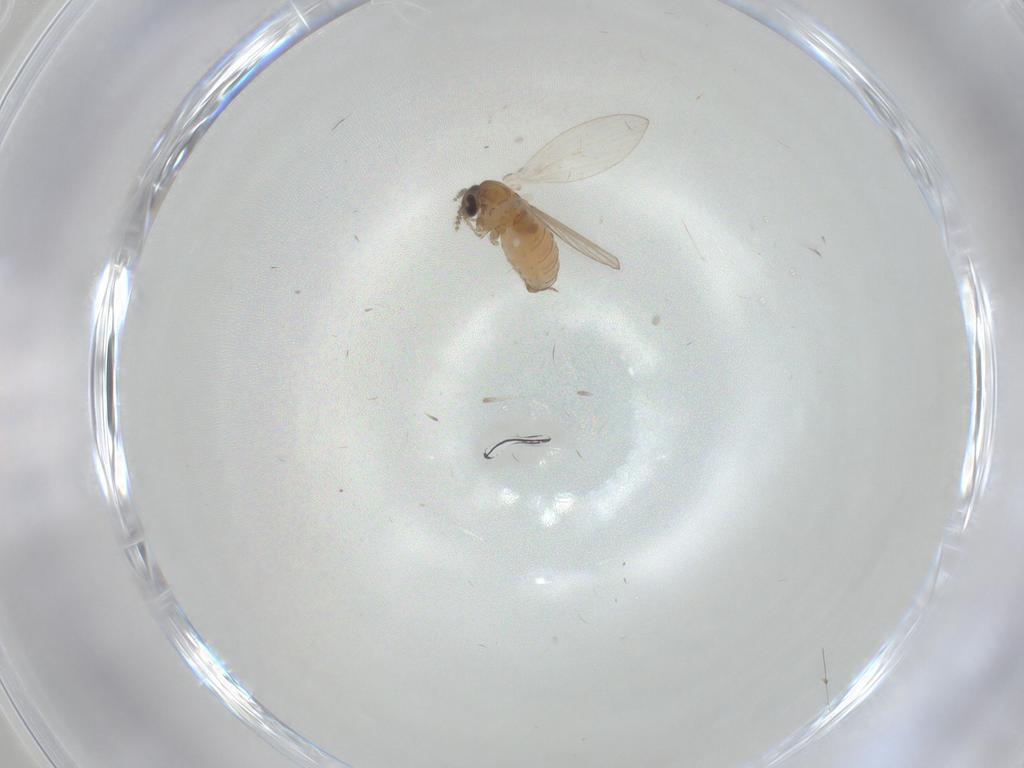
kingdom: Animalia
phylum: Arthropoda
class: Insecta
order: Diptera
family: Psychodidae
